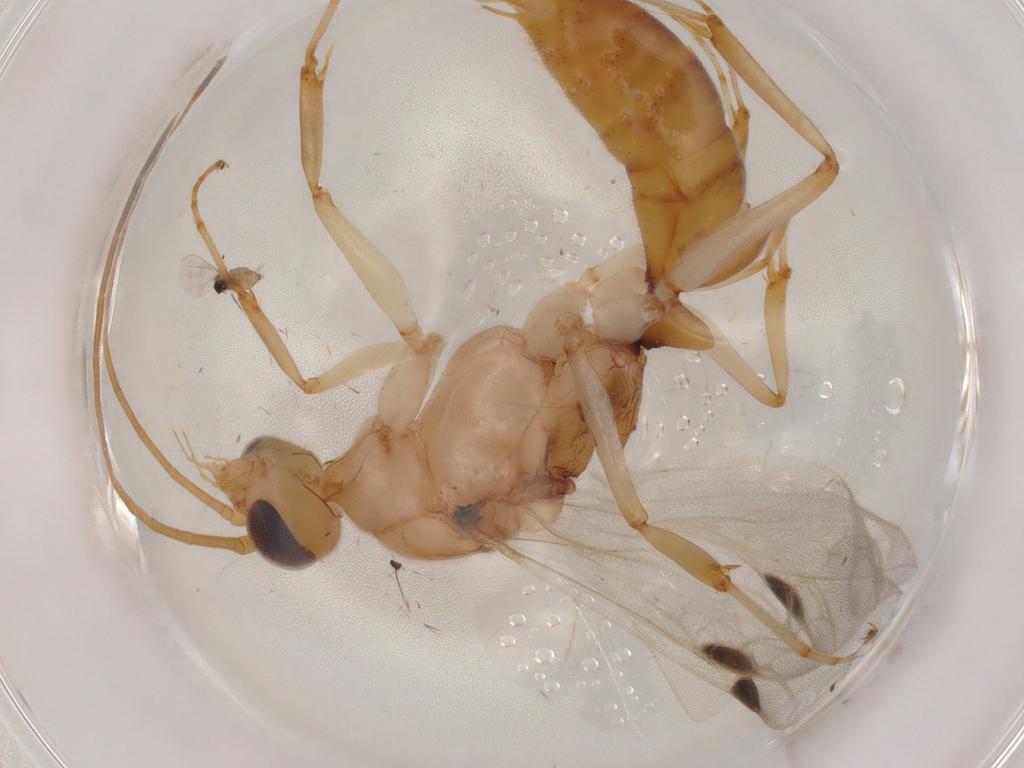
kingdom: Animalia
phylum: Arthropoda
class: Insecta
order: Hymenoptera
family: Formicidae
